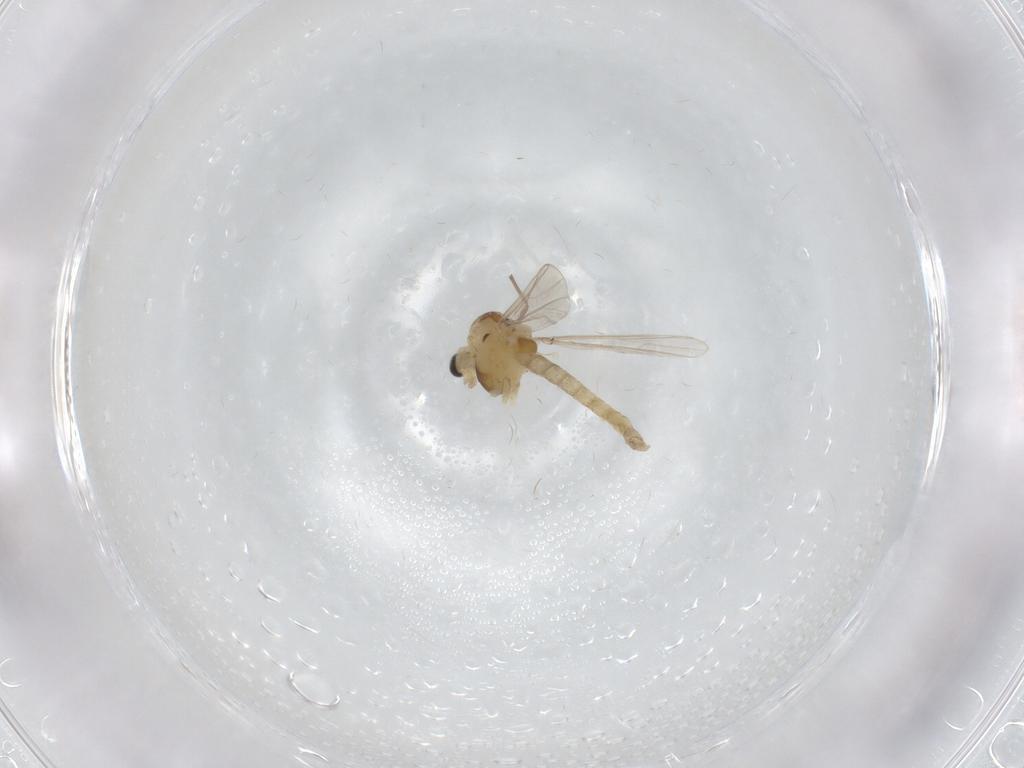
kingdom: Animalia
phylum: Arthropoda
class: Insecta
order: Diptera
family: Chironomidae
